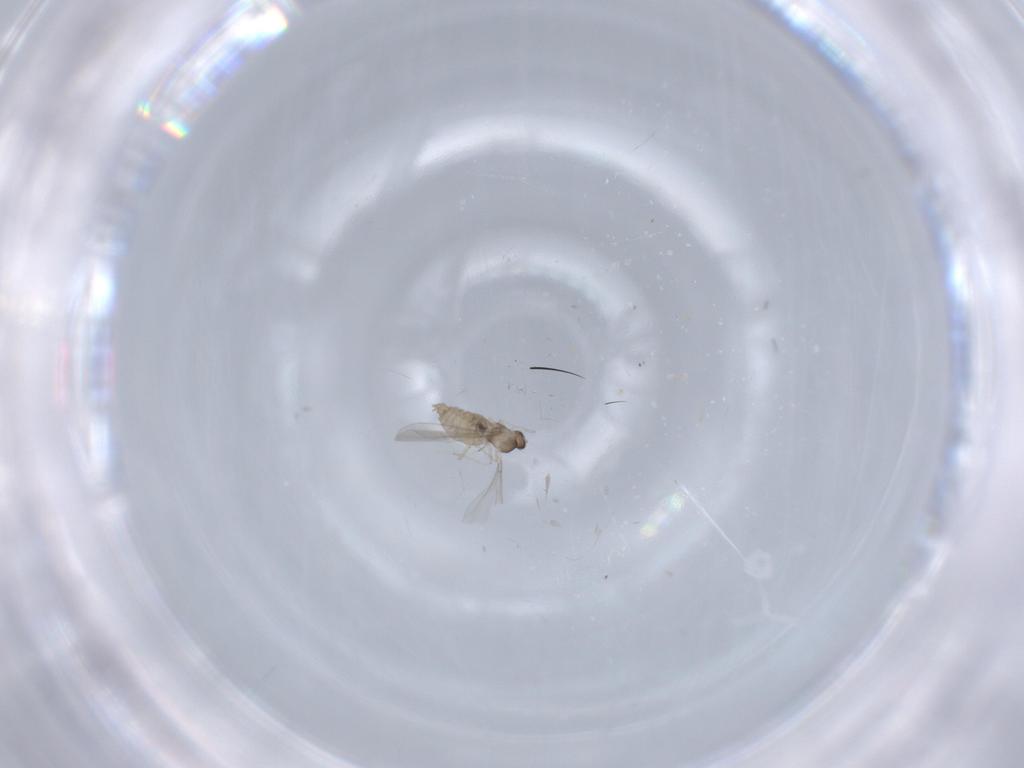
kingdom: Animalia
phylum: Arthropoda
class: Insecta
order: Diptera
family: Cecidomyiidae
